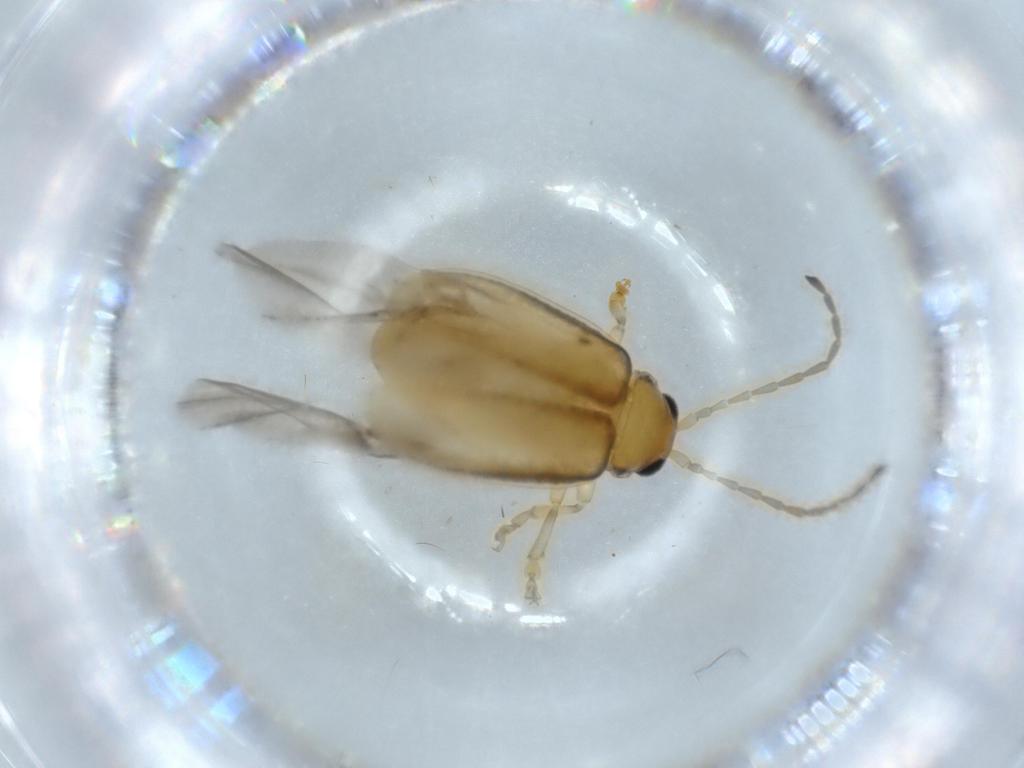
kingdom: Animalia
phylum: Arthropoda
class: Insecta
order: Coleoptera
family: Chrysomelidae
